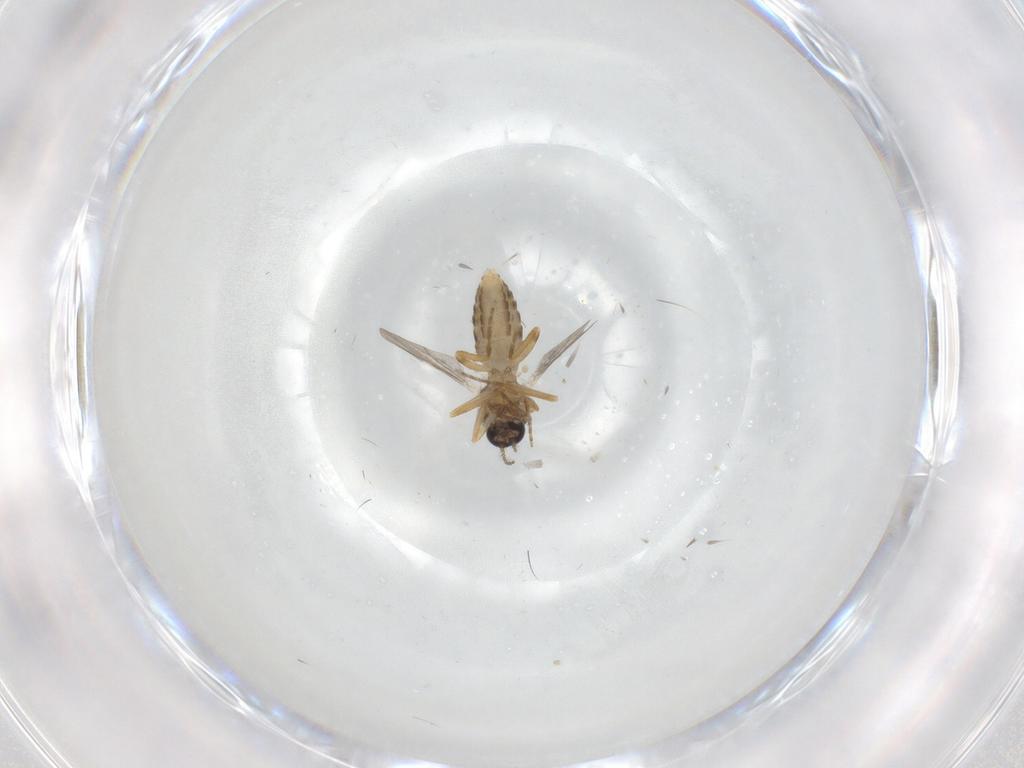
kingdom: Animalia
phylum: Arthropoda
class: Insecta
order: Diptera
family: Ceratopogonidae
